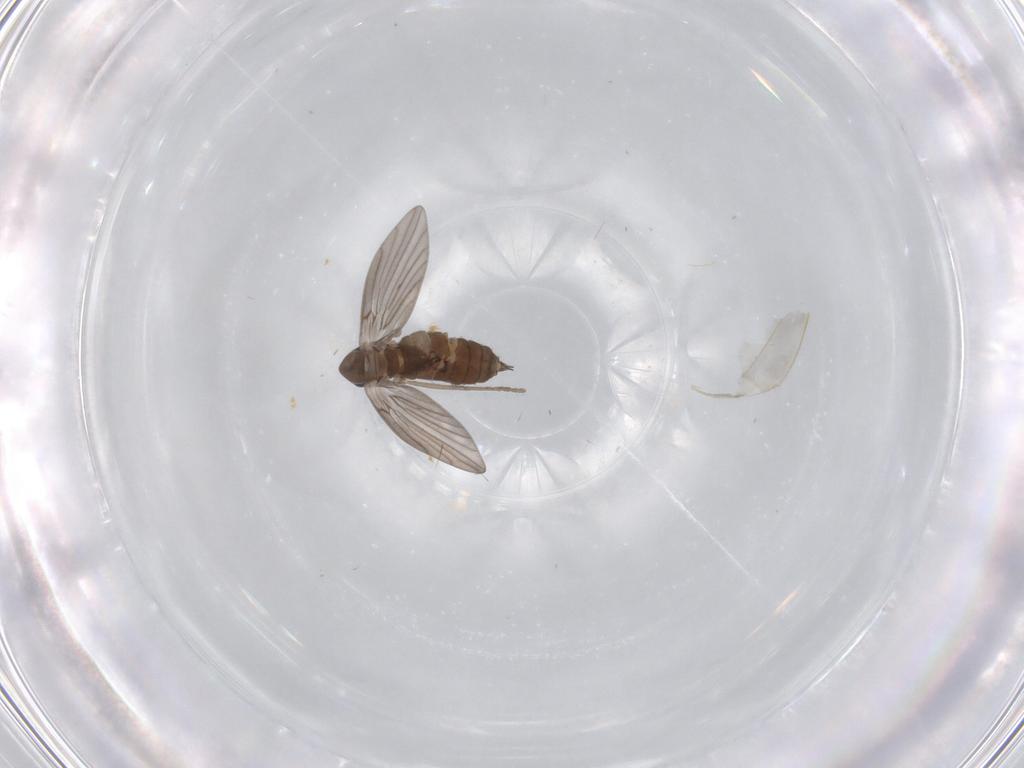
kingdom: Animalia
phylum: Arthropoda
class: Insecta
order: Diptera
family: Psychodidae
